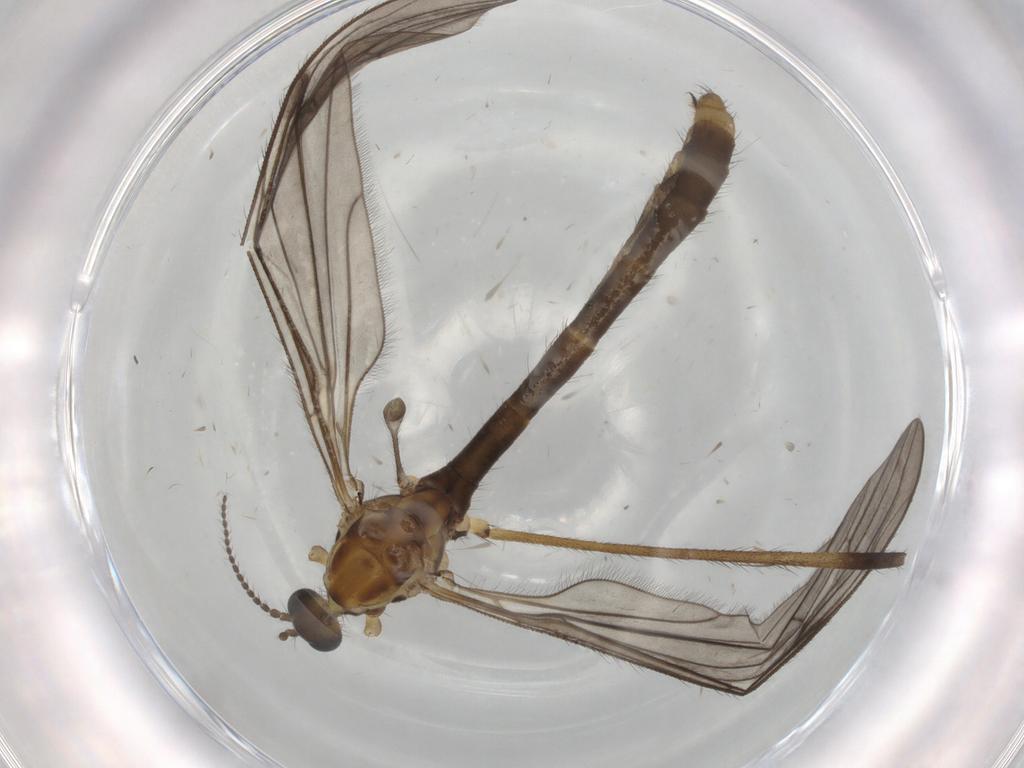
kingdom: Animalia
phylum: Arthropoda
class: Insecta
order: Diptera
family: Limoniidae
